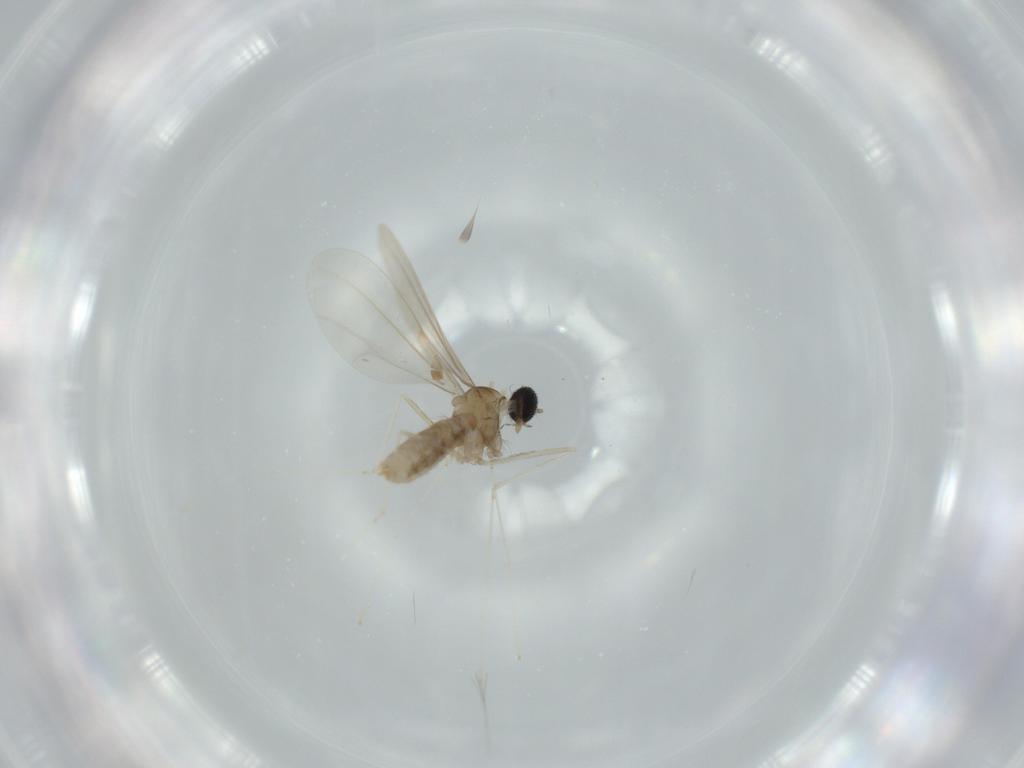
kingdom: Animalia
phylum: Arthropoda
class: Insecta
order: Diptera
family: Cecidomyiidae
